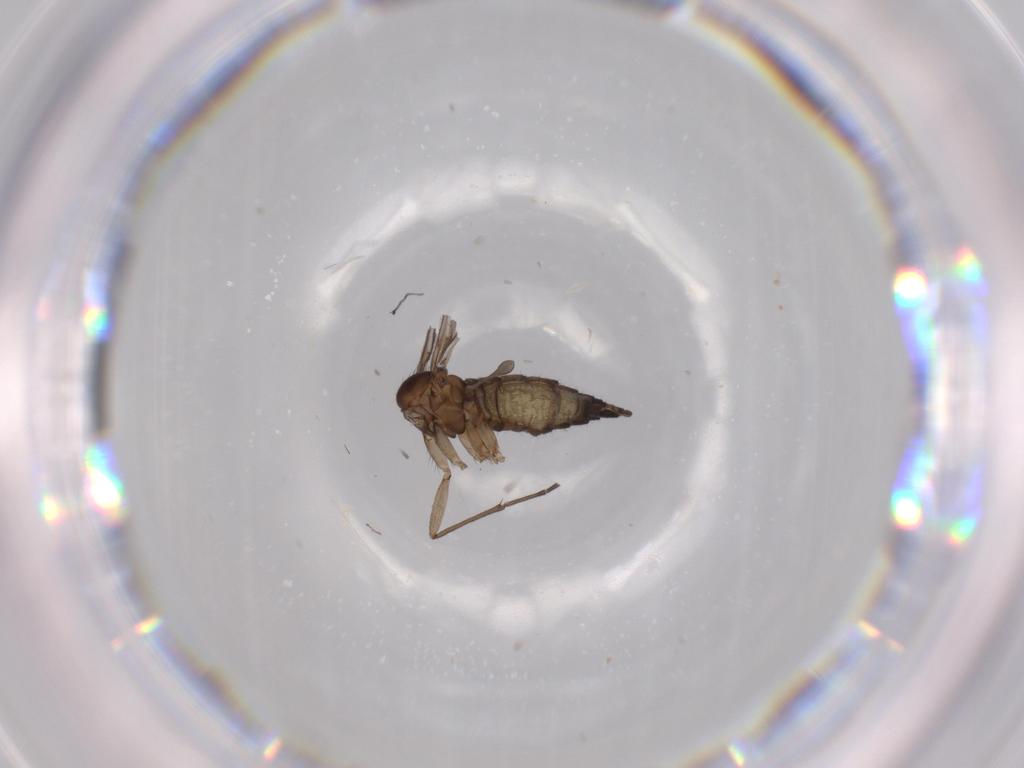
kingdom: Animalia
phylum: Arthropoda
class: Insecta
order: Diptera
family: Sciaridae
